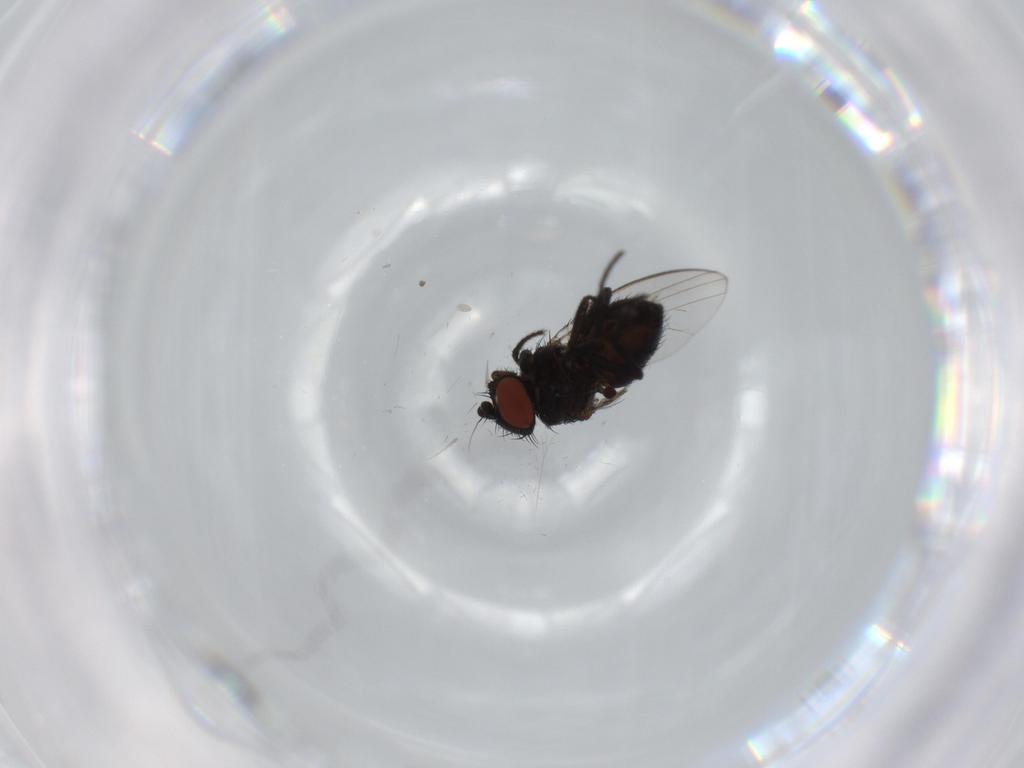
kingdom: Animalia
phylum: Arthropoda
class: Insecta
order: Diptera
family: Milichiidae
